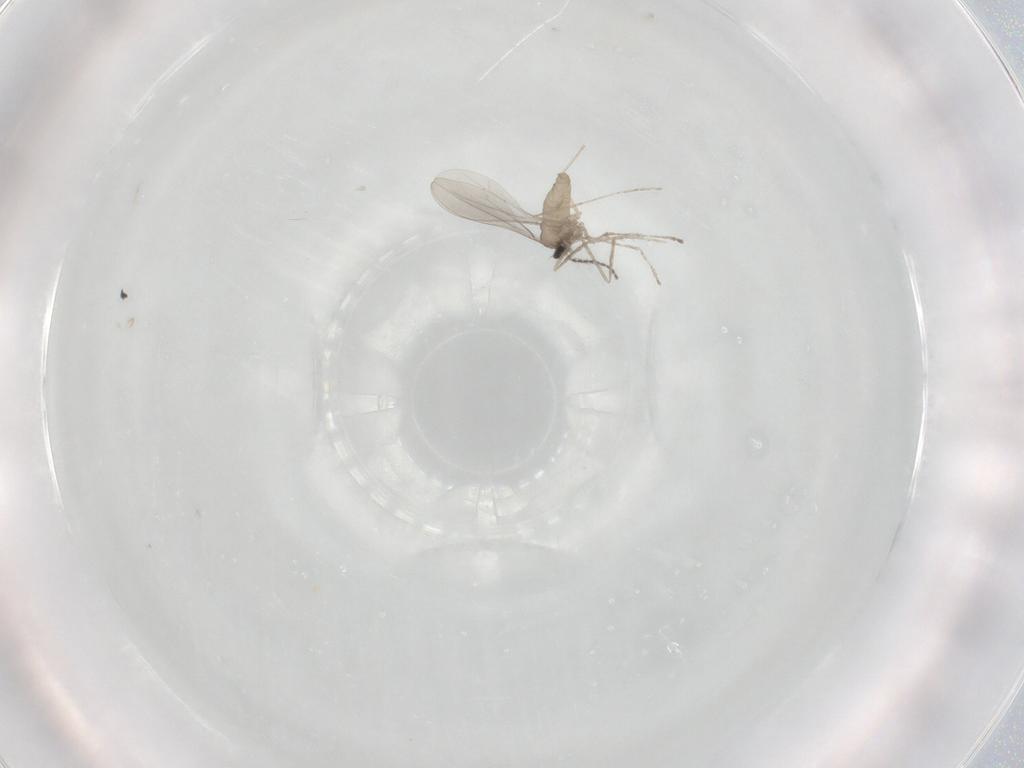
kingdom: Animalia
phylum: Arthropoda
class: Insecta
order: Diptera
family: Cecidomyiidae
